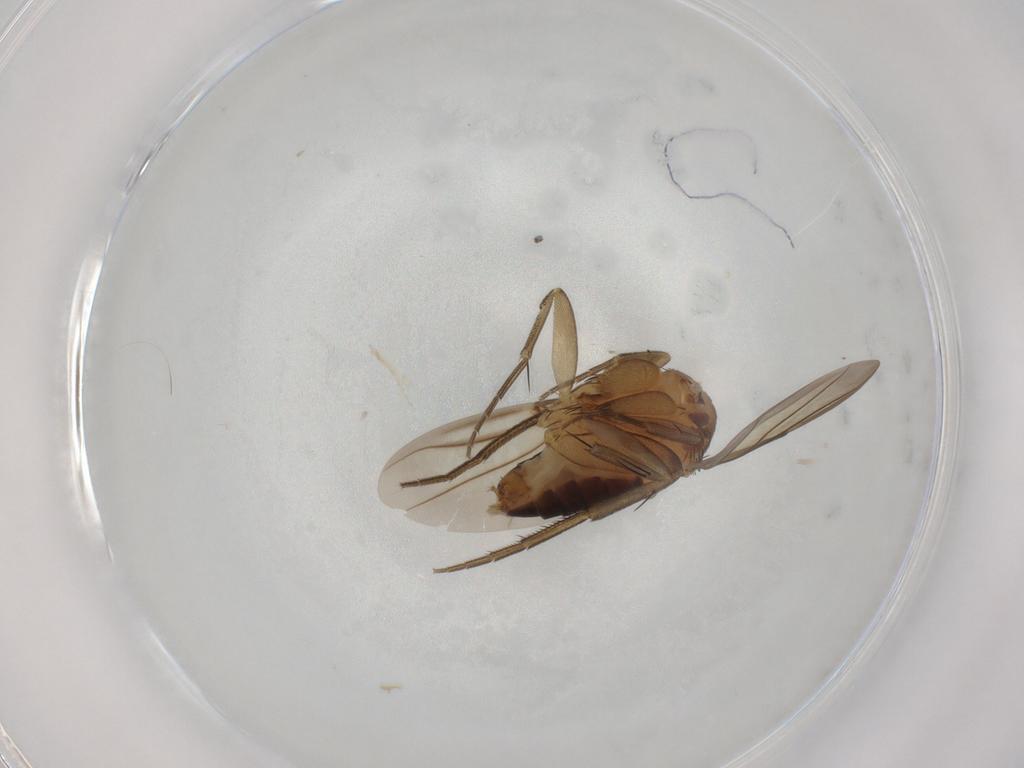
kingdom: Animalia
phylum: Arthropoda
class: Insecta
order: Diptera
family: Phoridae
